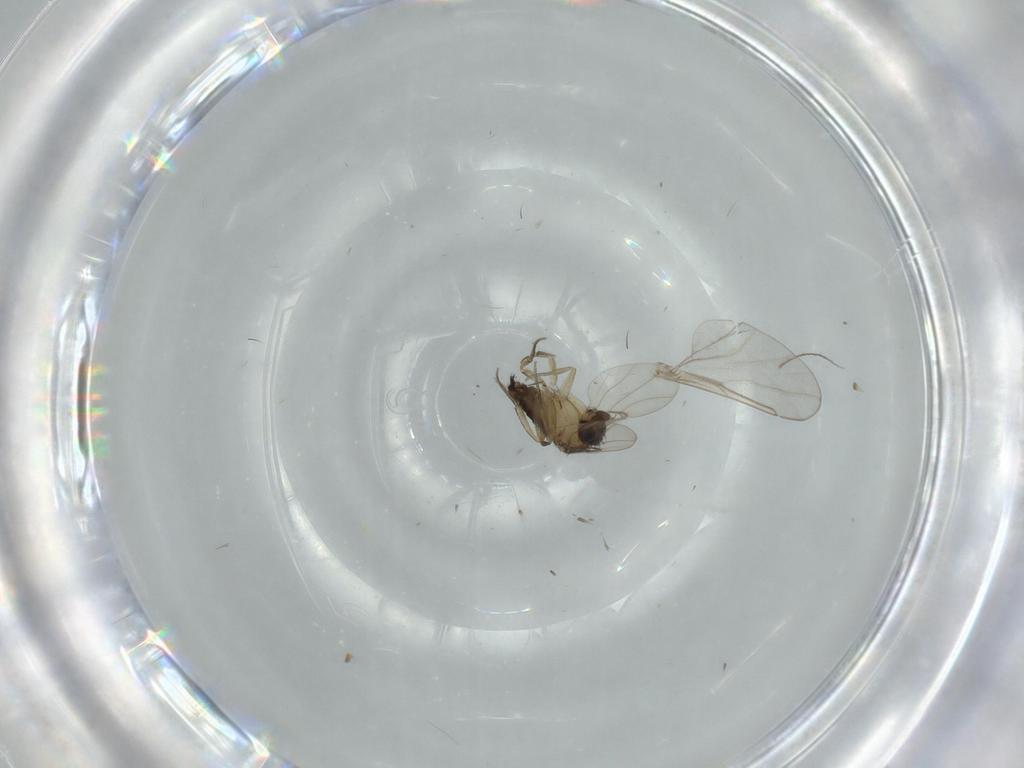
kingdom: Animalia
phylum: Arthropoda
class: Insecta
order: Diptera
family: Phoridae
